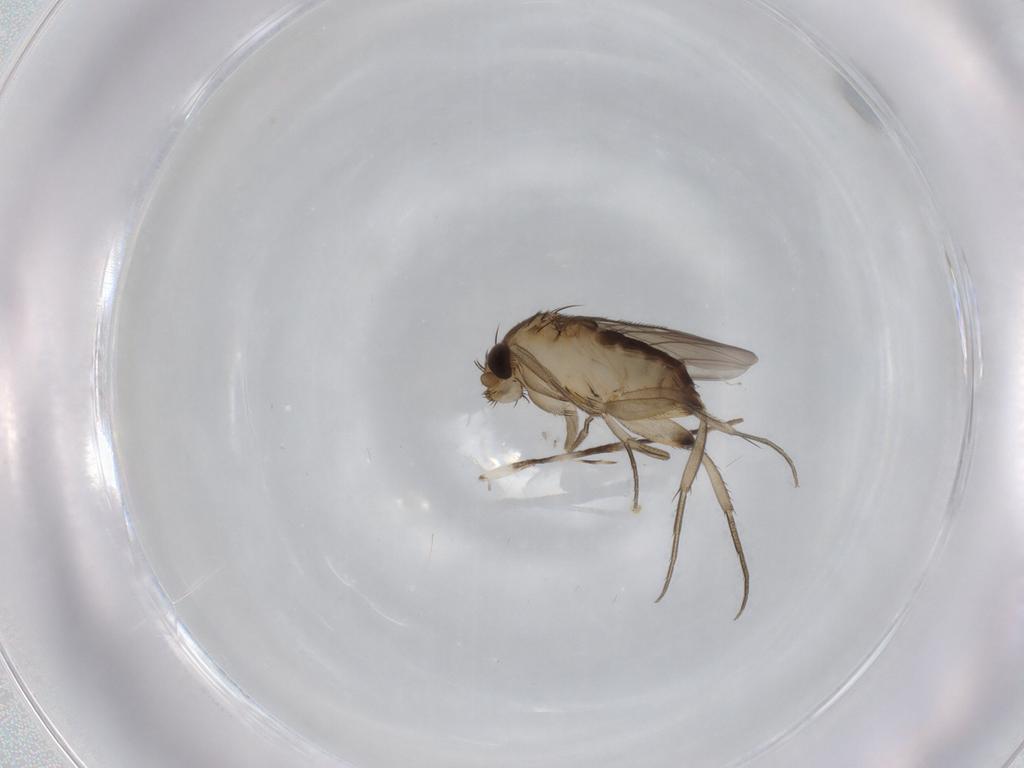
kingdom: Animalia
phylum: Arthropoda
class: Insecta
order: Diptera
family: Phoridae
